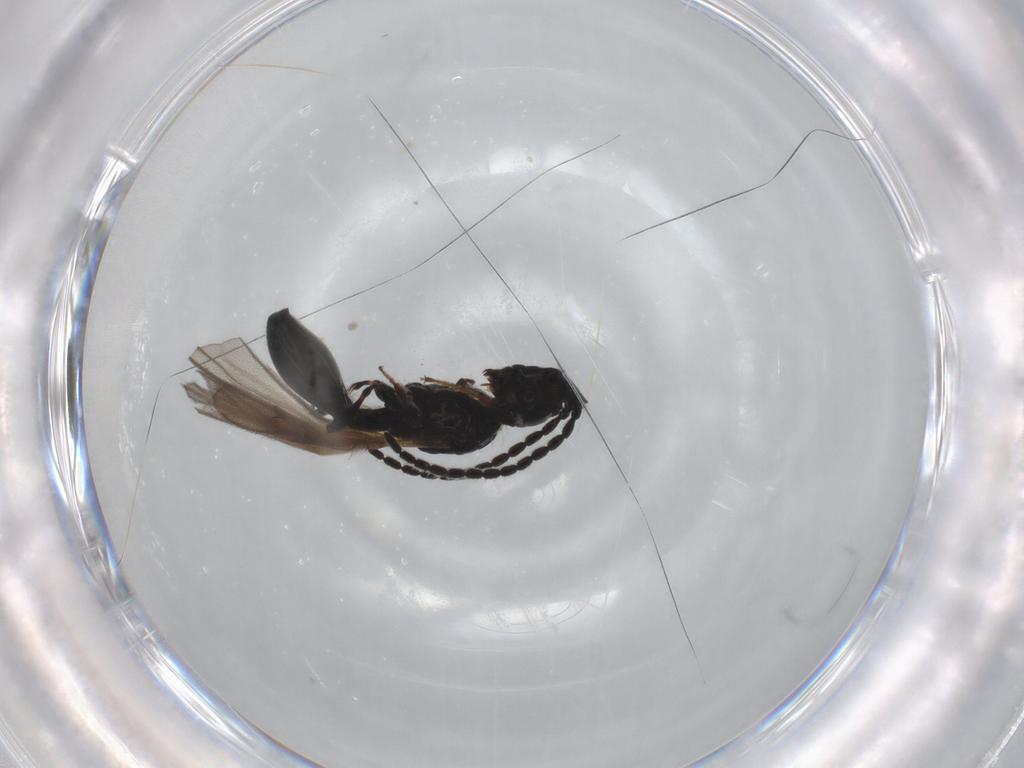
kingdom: Animalia
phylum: Arthropoda
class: Insecta
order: Hymenoptera
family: Diapriidae
